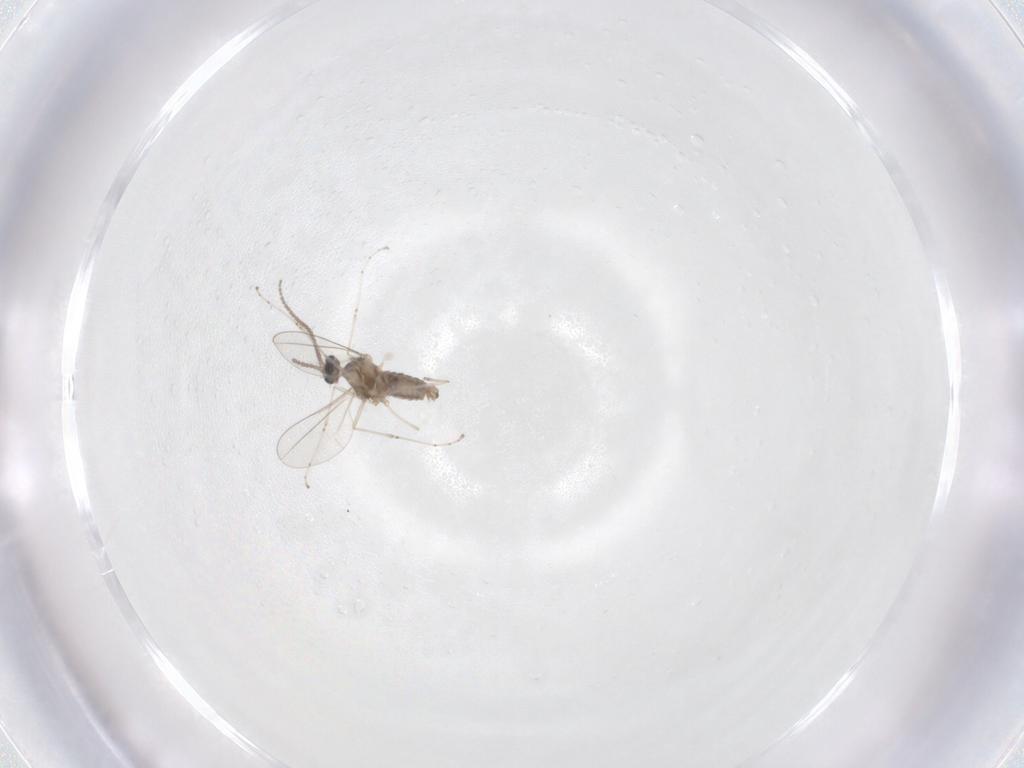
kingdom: Animalia
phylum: Arthropoda
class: Insecta
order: Diptera
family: Cecidomyiidae
